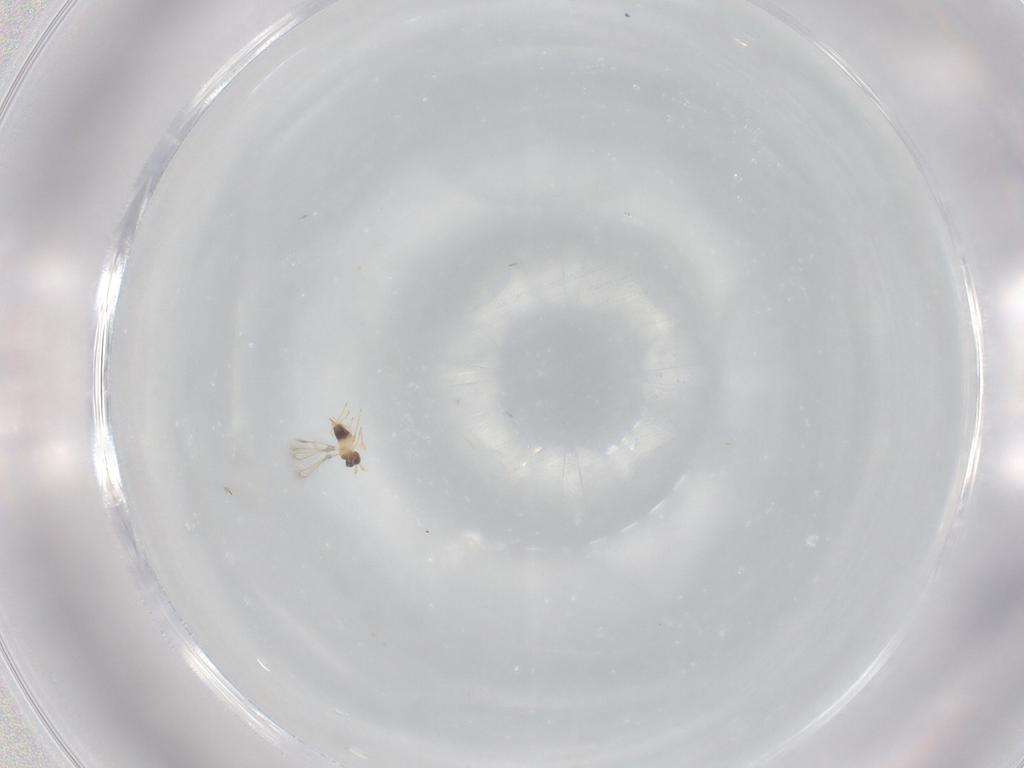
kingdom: Animalia
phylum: Arthropoda
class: Insecta
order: Hymenoptera
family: Mymaridae
